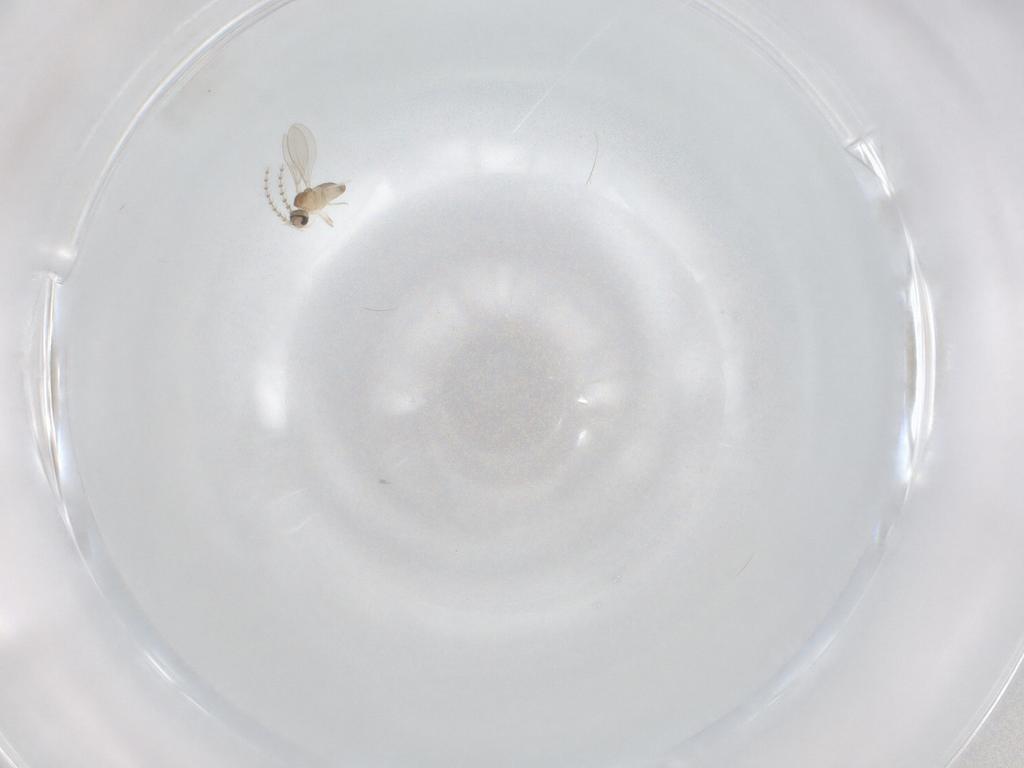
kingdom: Animalia
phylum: Arthropoda
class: Insecta
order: Diptera
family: Cecidomyiidae
